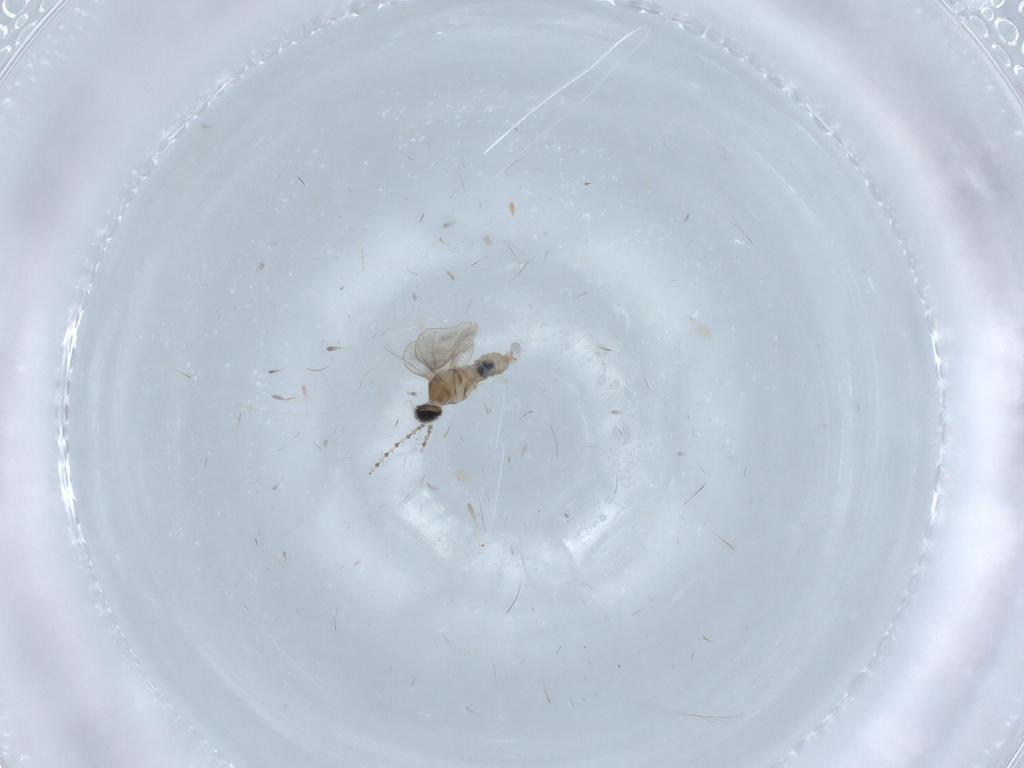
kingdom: Animalia
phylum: Arthropoda
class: Insecta
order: Diptera
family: Cecidomyiidae
